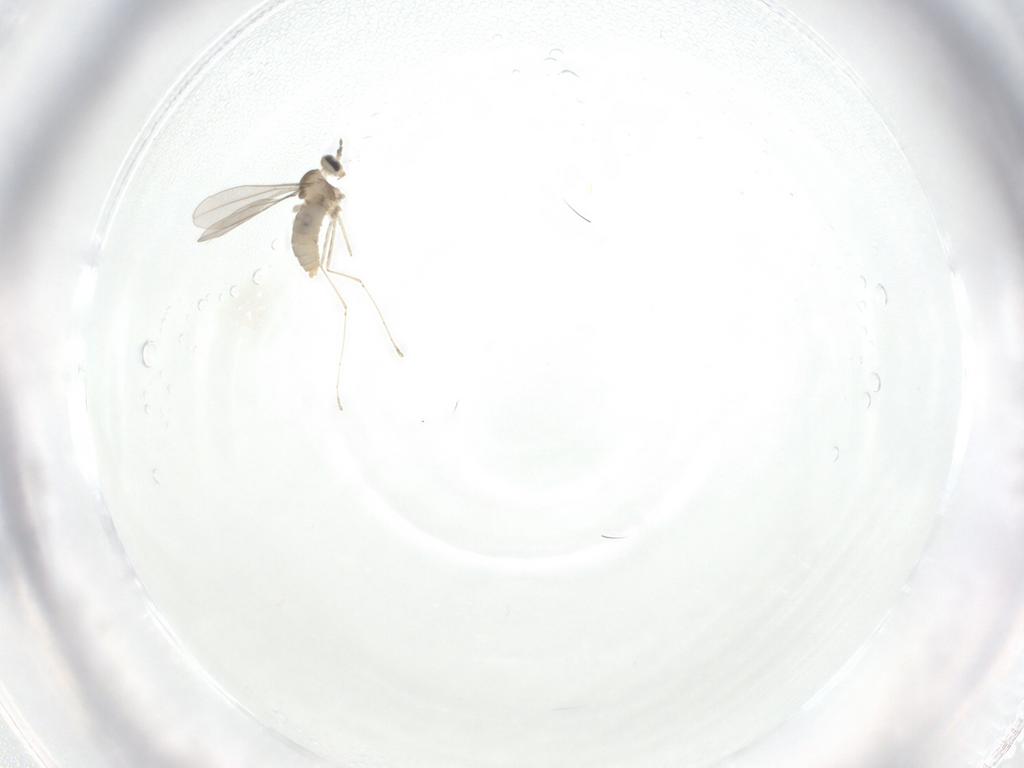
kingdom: Animalia
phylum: Arthropoda
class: Insecta
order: Diptera
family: Cecidomyiidae
